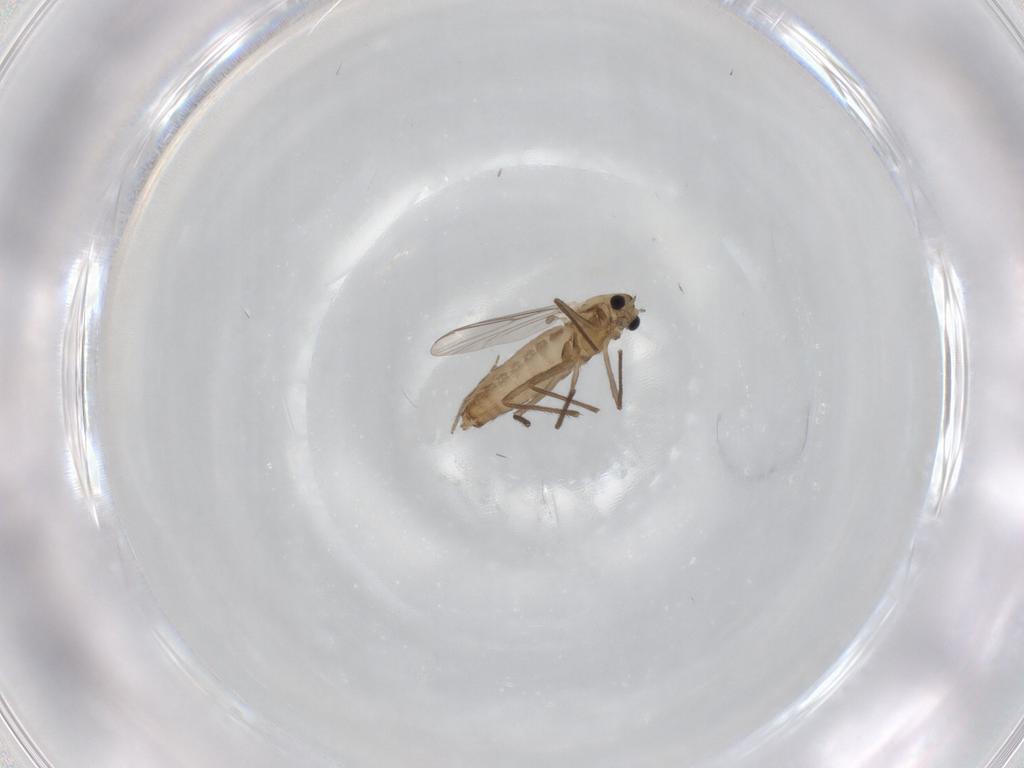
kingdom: Animalia
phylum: Arthropoda
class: Insecta
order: Diptera
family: Chironomidae
